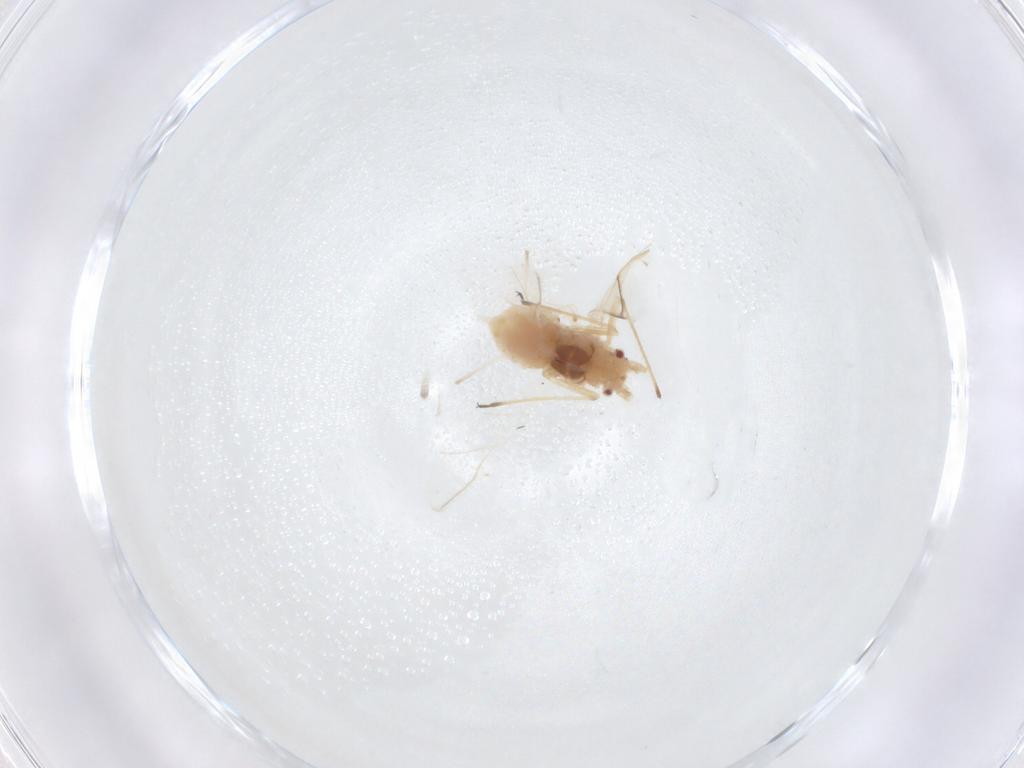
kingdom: Animalia
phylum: Arthropoda
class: Insecta
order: Hemiptera
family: Aphididae
